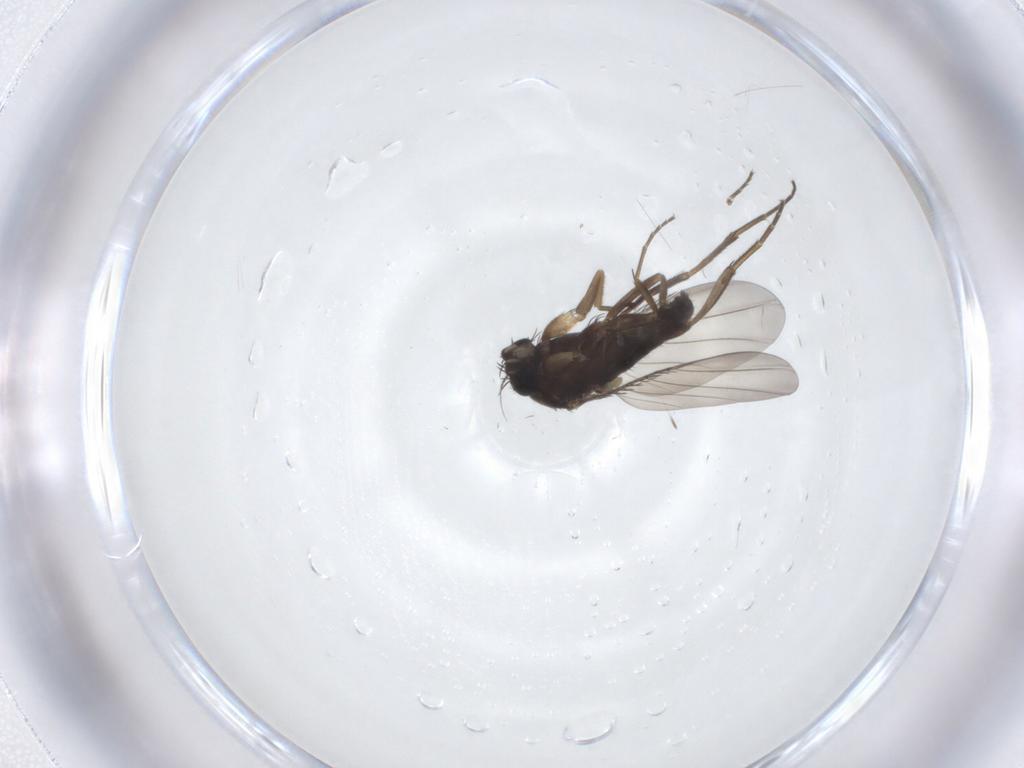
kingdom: Animalia
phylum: Arthropoda
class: Insecta
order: Diptera
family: Phoridae
